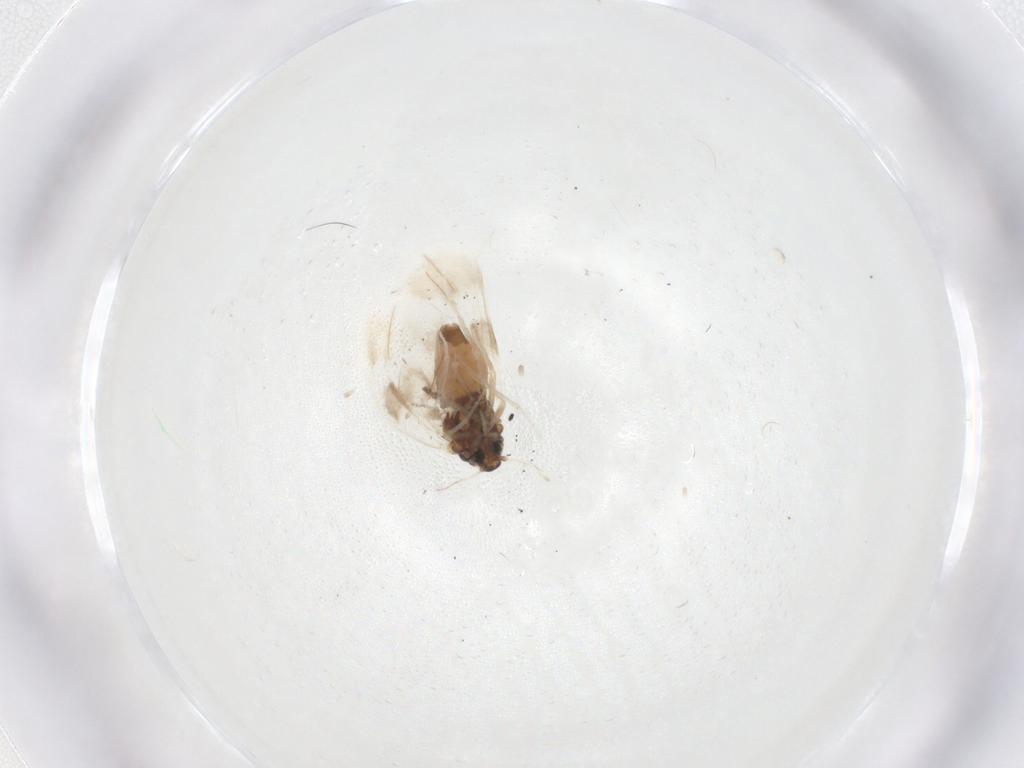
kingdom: Animalia
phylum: Arthropoda
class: Insecta
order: Hemiptera
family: Aleyrodidae
